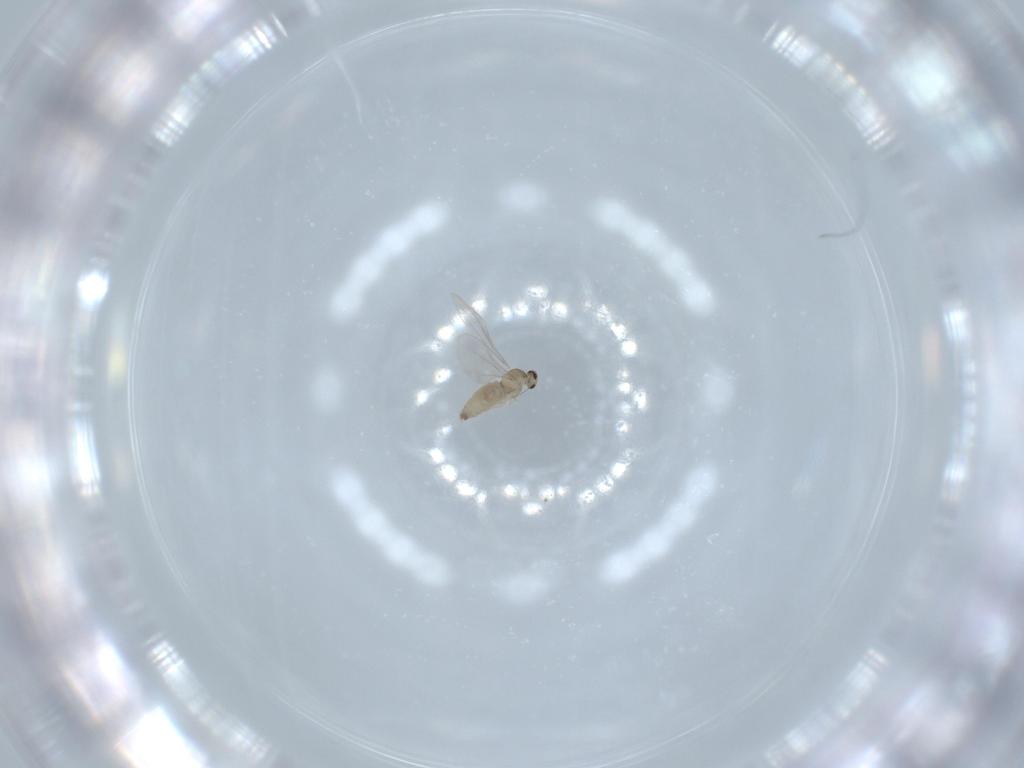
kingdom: Animalia
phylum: Arthropoda
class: Insecta
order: Diptera
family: Cecidomyiidae
